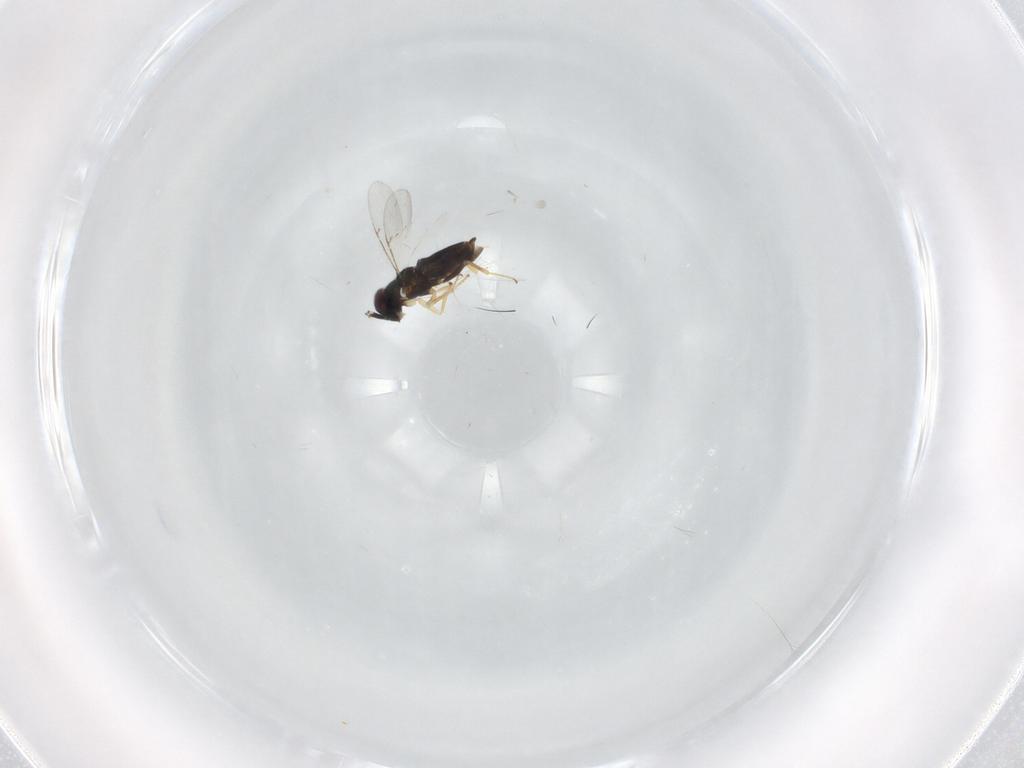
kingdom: Animalia
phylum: Arthropoda
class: Insecta
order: Hymenoptera
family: Encyrtidae
